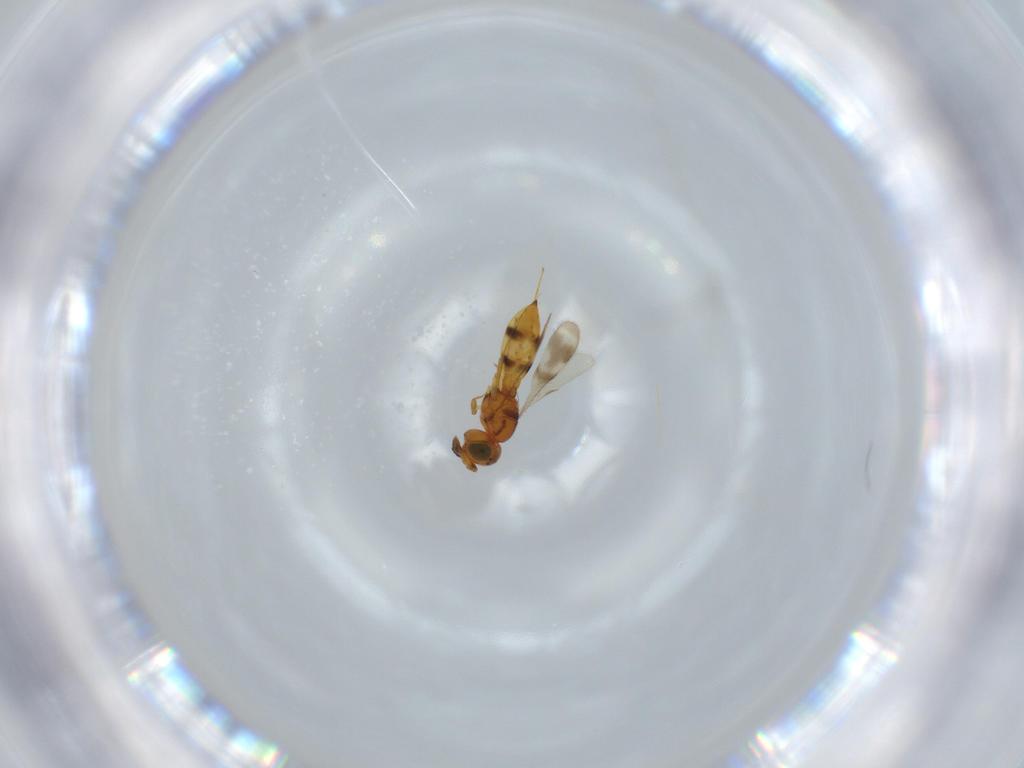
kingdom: Animalia
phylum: Arthropoda
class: Insecta
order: Hymenoptera
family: Scelionidae
